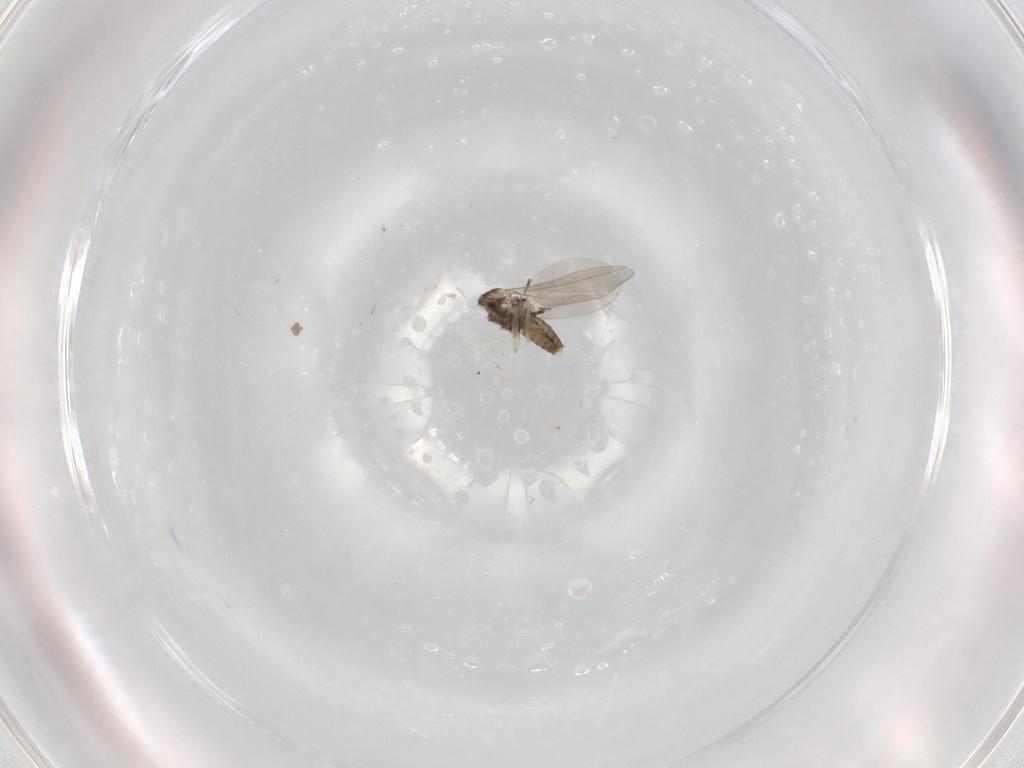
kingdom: Animalia
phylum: Arthropoda
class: Insecta
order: Diptera
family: Cecidomyiidae
